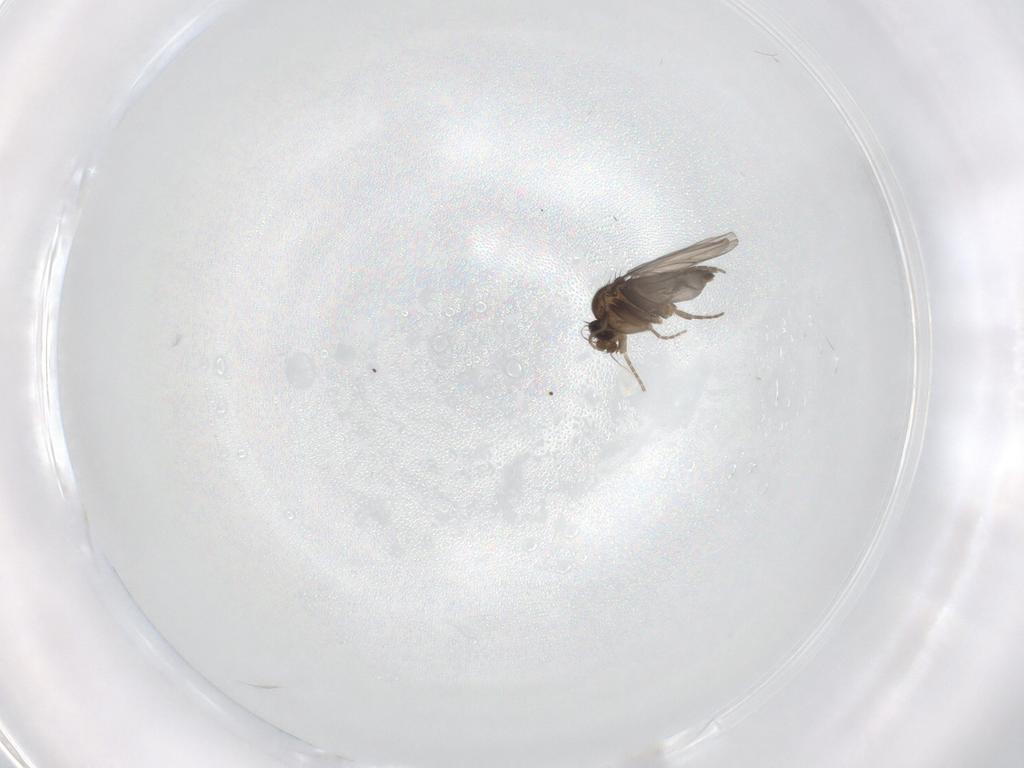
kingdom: Animalia
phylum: Arthropoda
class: Insecta
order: Diptera
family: Phoridae
